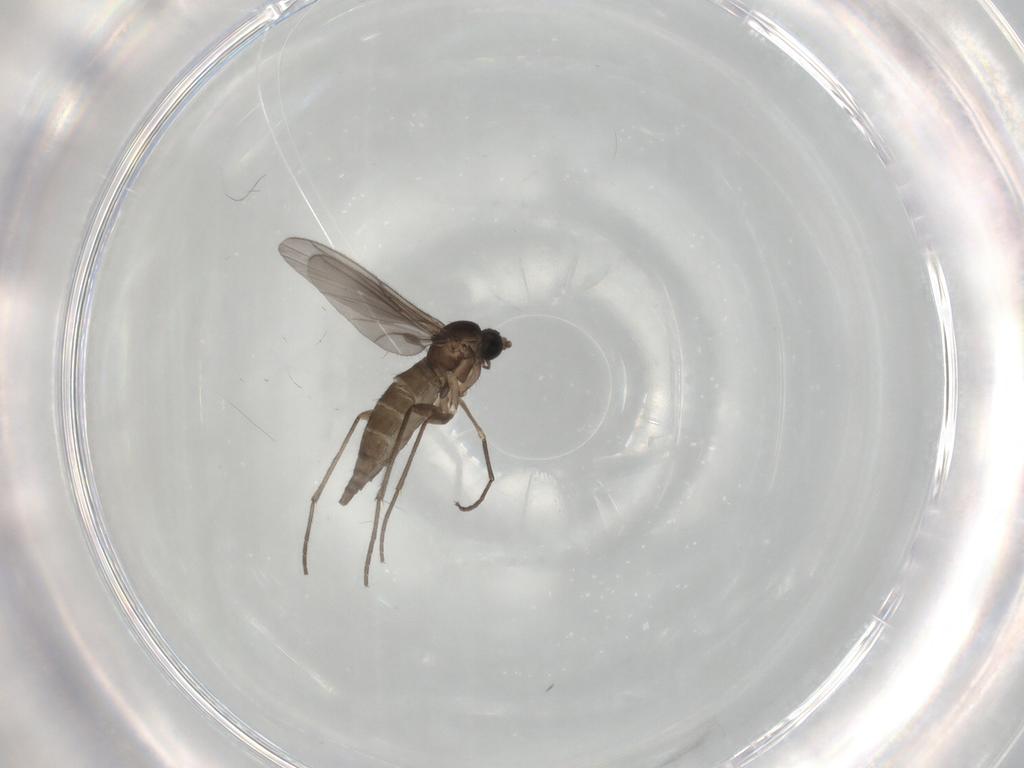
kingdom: Animalia
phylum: Arthropoda
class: Insecta
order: Diptera
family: Sciaridae
